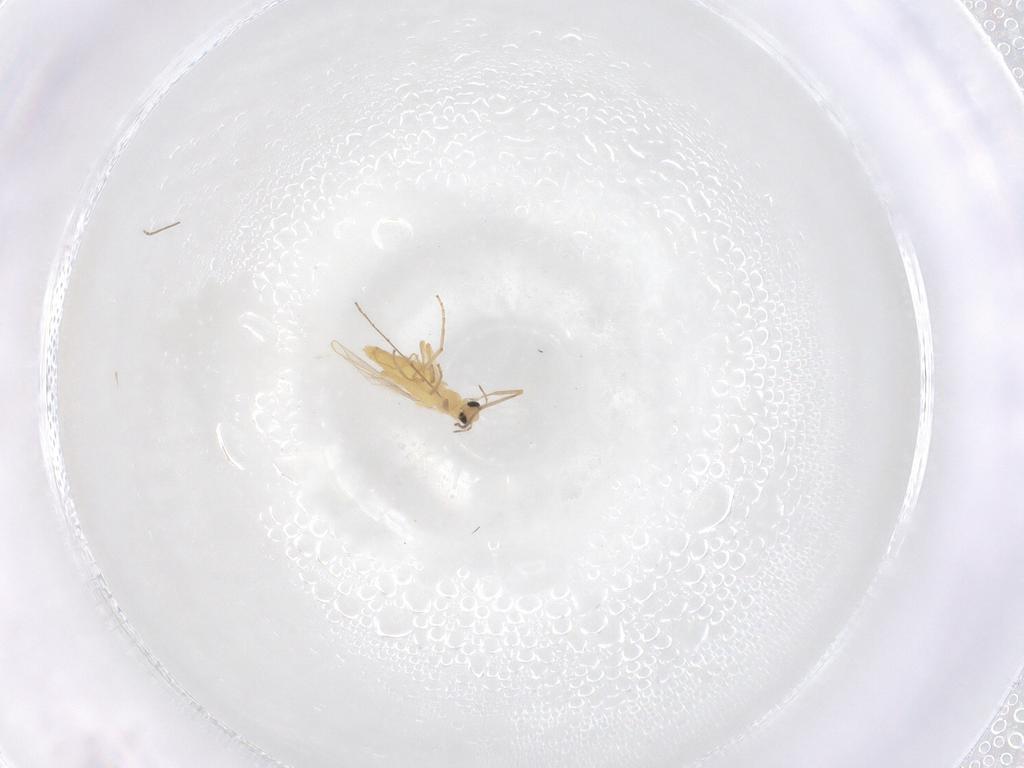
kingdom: Animalia
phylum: Arthropoda
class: Insecta
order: Diptera
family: Chironomidae
